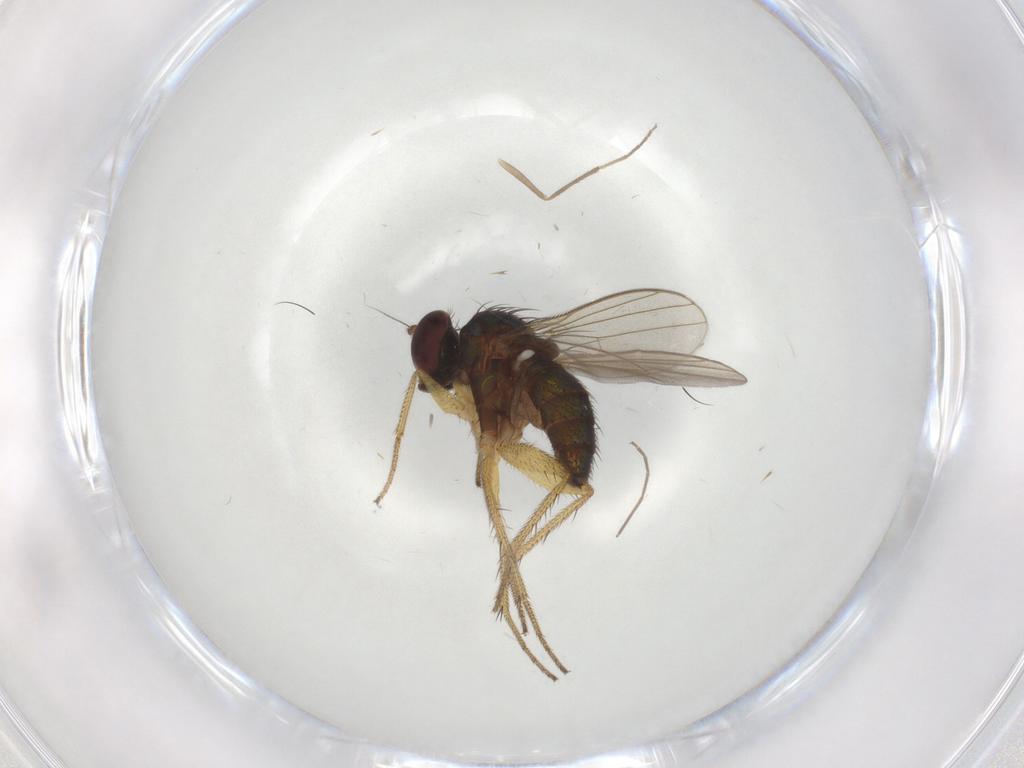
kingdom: Animalia
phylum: Arthropoda
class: Insecta
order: Diptera
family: Chironomidae
